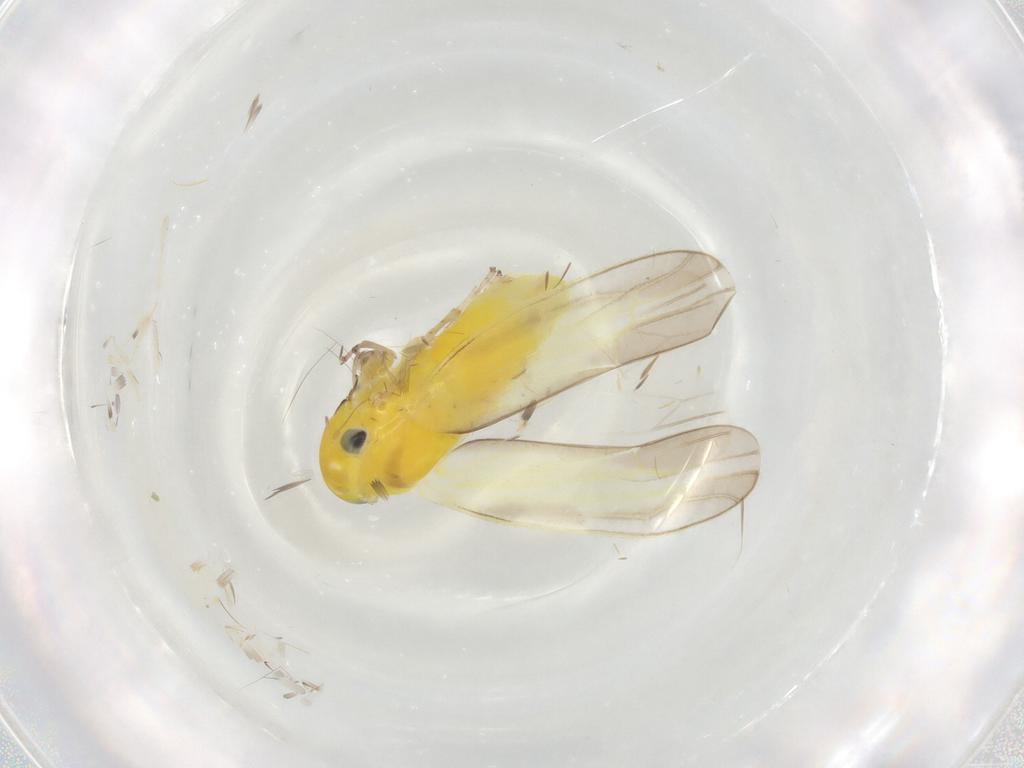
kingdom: Animalia
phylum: Arthropoda
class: Insecta
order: Hemiptera
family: Cicadellidae
